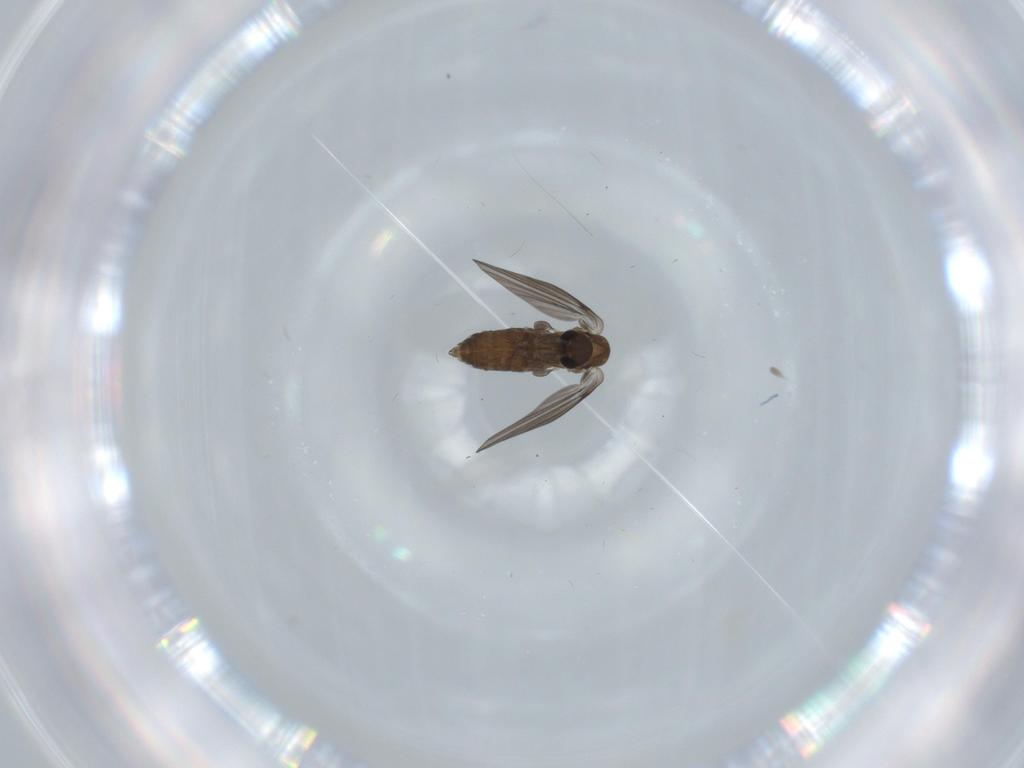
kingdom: Animalia
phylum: Arthropoda
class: Insecta
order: Diptera
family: Psychodidae
